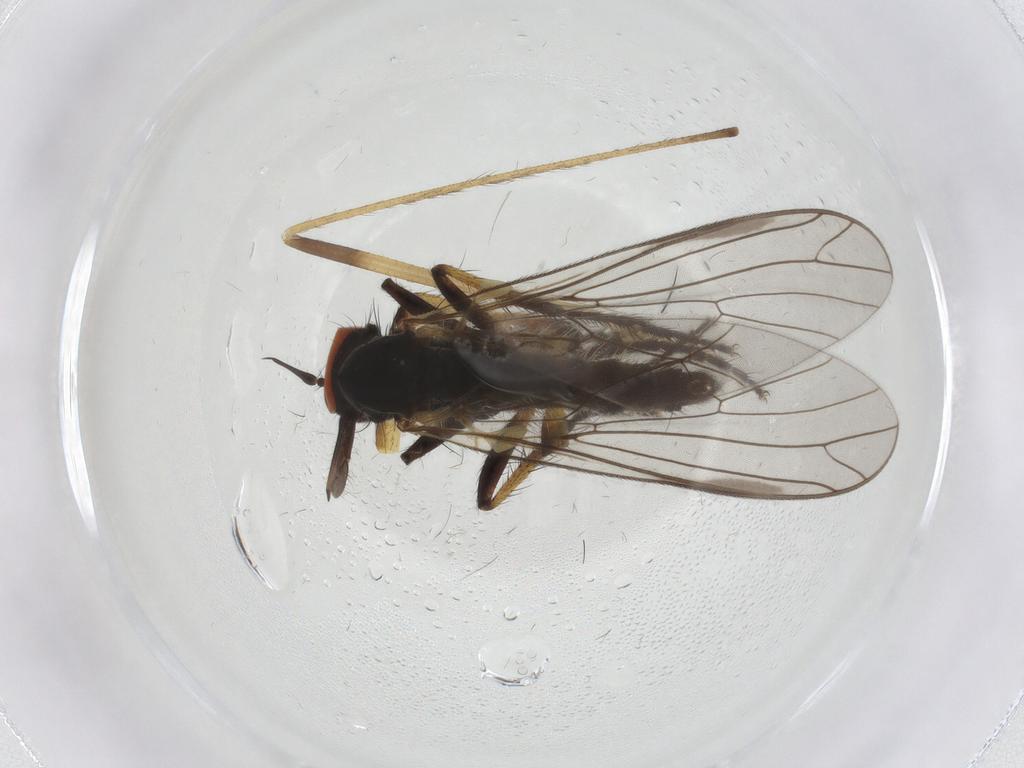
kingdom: Animalia
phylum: Arthropoda
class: Insecta
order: Diptera
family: Empididae
